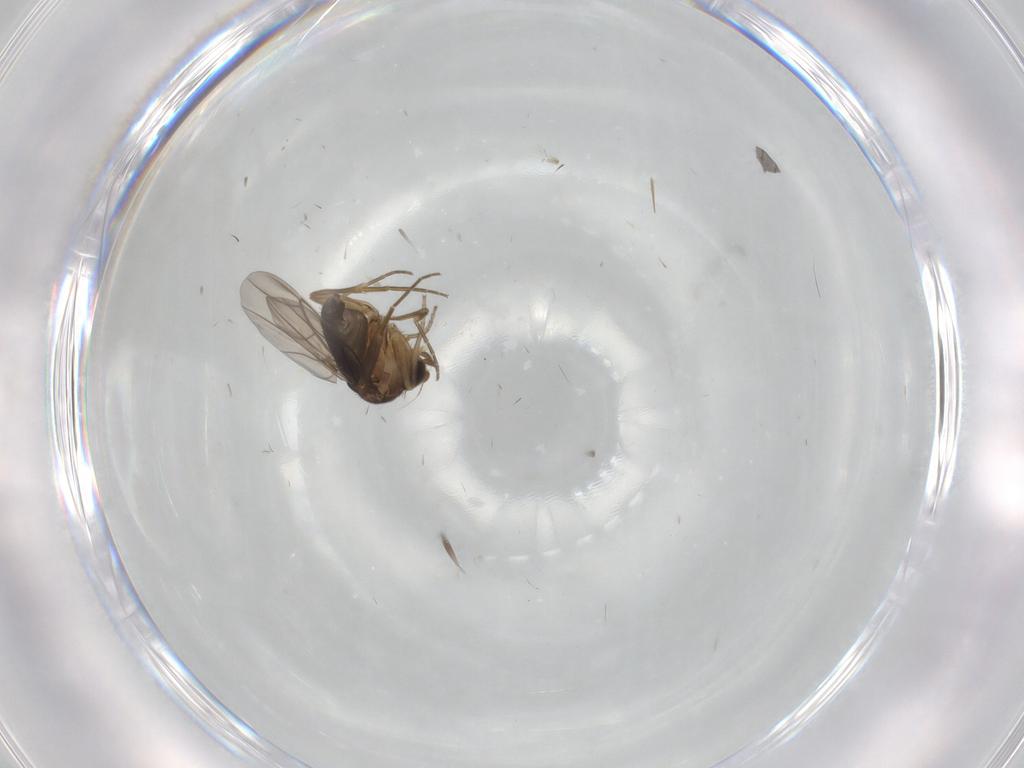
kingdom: Animalia
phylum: Arthropoda
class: Insecta
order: Diptera
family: Phoridae
